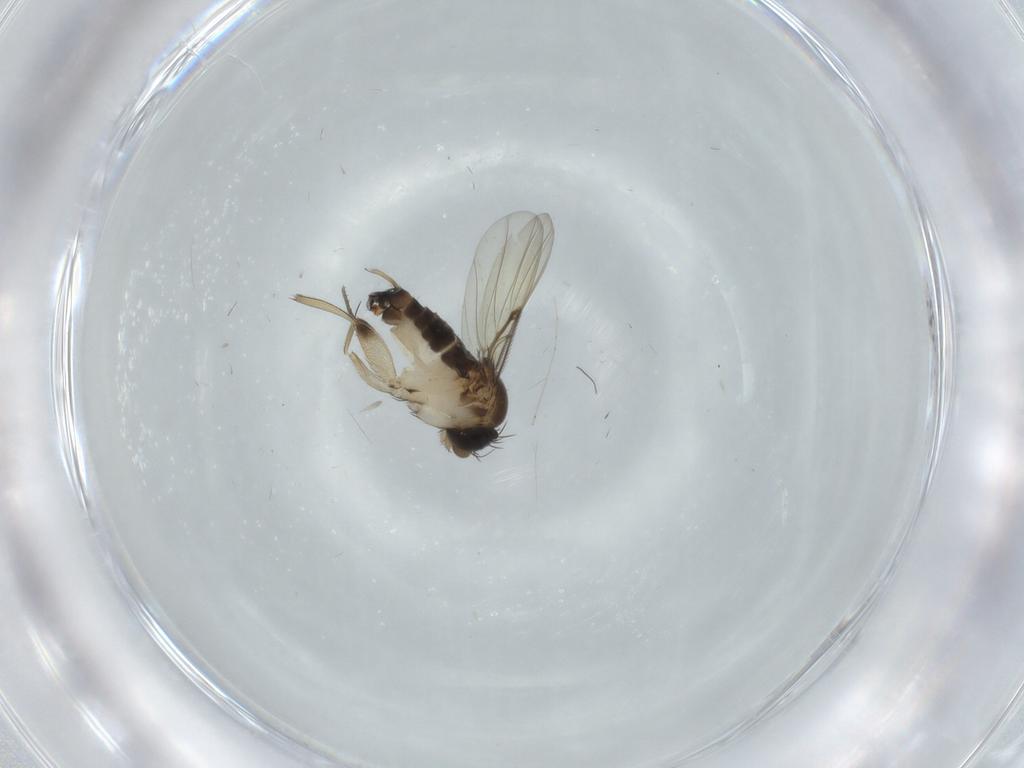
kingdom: Animalia
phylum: Arthropoda
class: Insecta
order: Diptera
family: Phoridae
